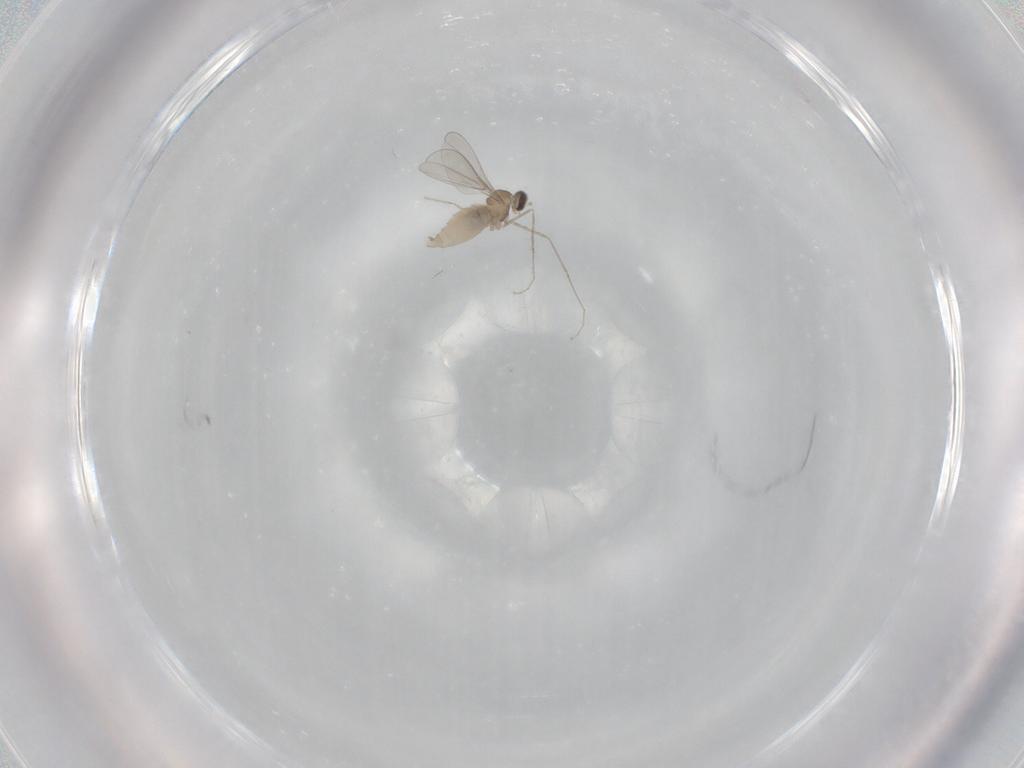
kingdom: Animalia
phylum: Arthropoda
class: Insecta
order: Diptera
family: Cecidomyiidae
